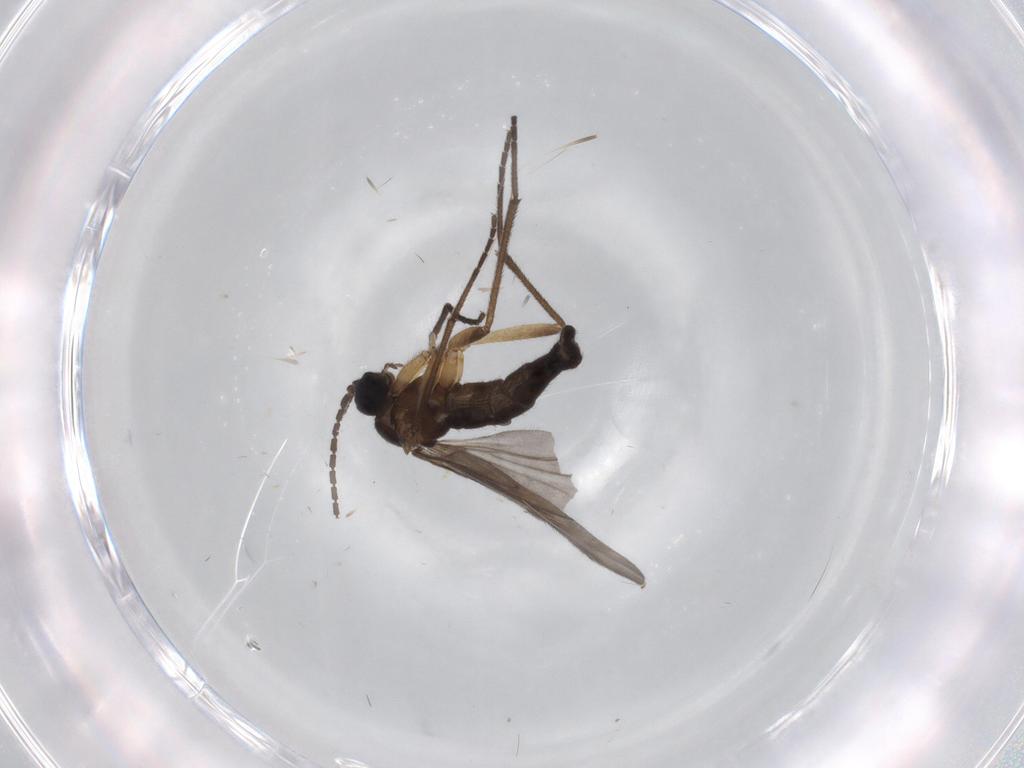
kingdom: Animalia
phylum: Arthropoda
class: Insecta
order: Diptera
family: Sciaridae
